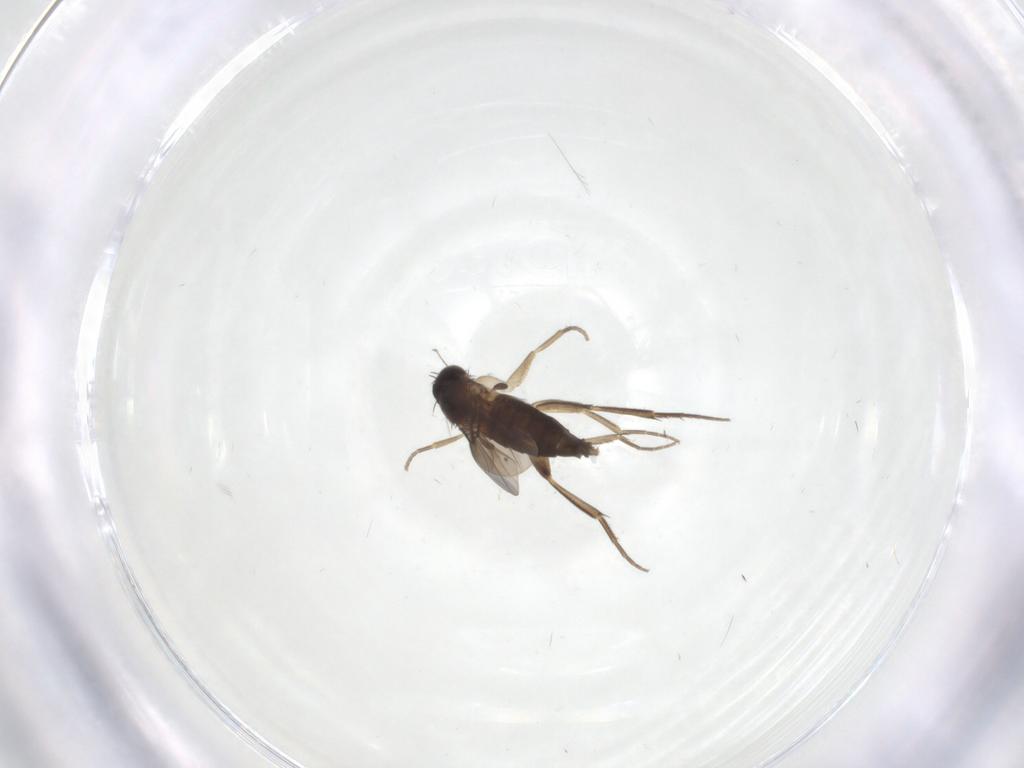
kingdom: Animalia
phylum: Arthropoda
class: Insecta
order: Diptera
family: Phoridae
